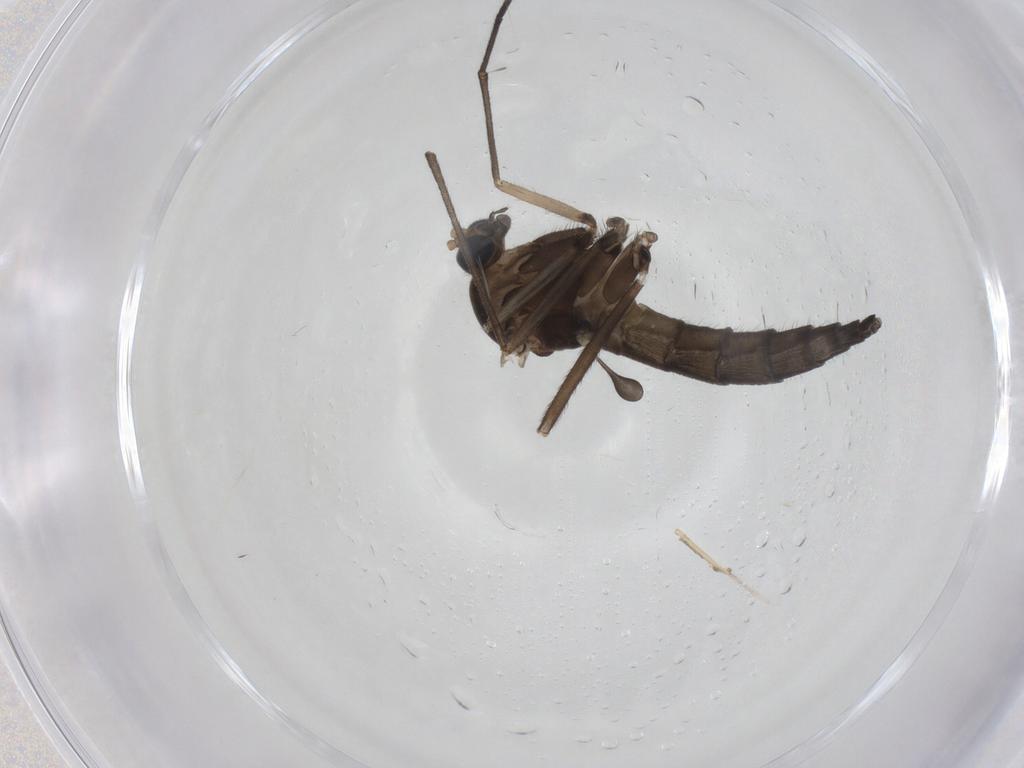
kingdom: Animalia
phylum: Arthropoda
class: Insecta
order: Diptera
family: Sciaridae
